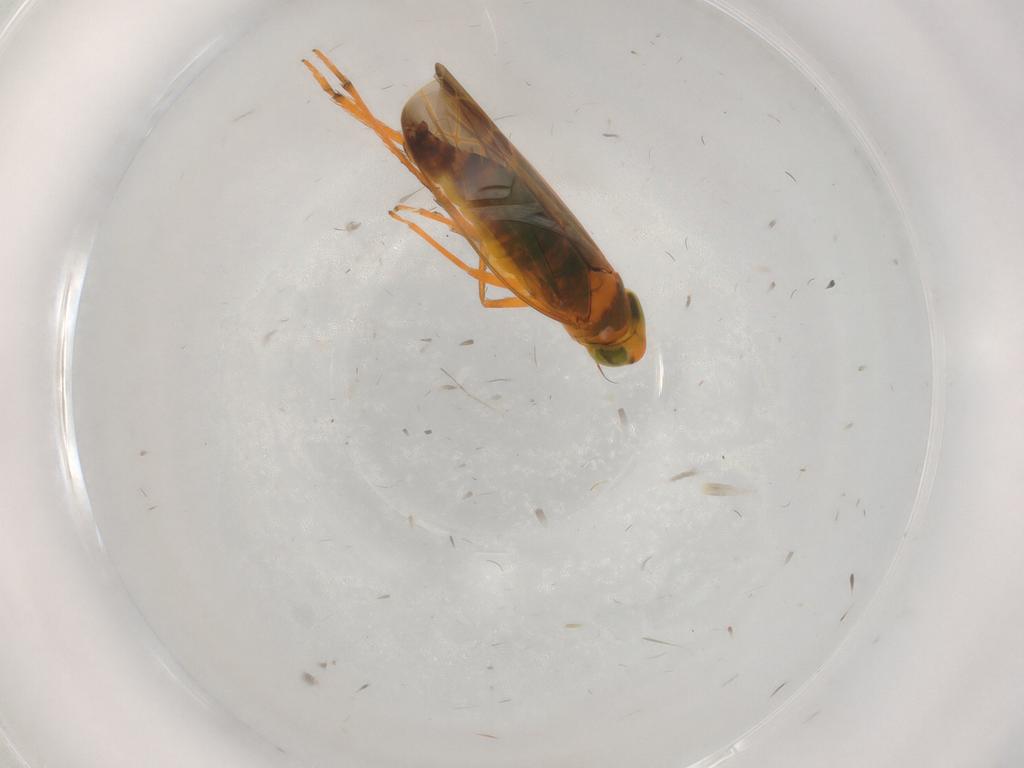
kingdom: Animalia
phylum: Arthropoda
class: Insecta
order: Hemiptera
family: Cicadellidae
